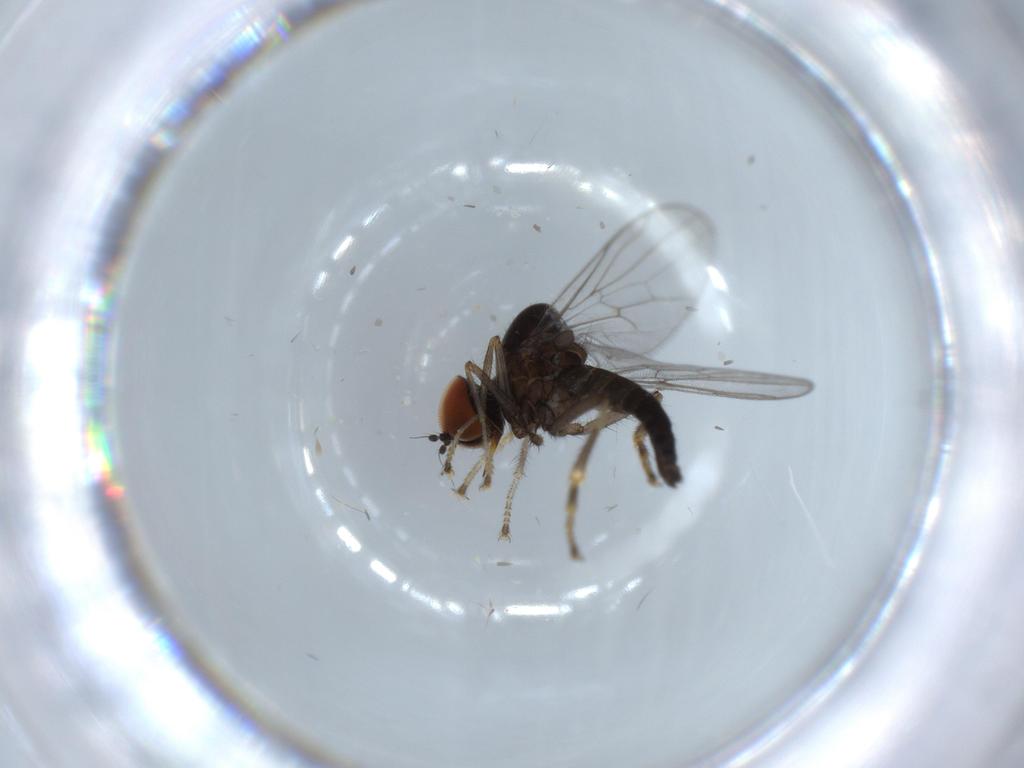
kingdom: Animalia
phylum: Arthropoda
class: Insecta
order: Diptera
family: Hybotidae
